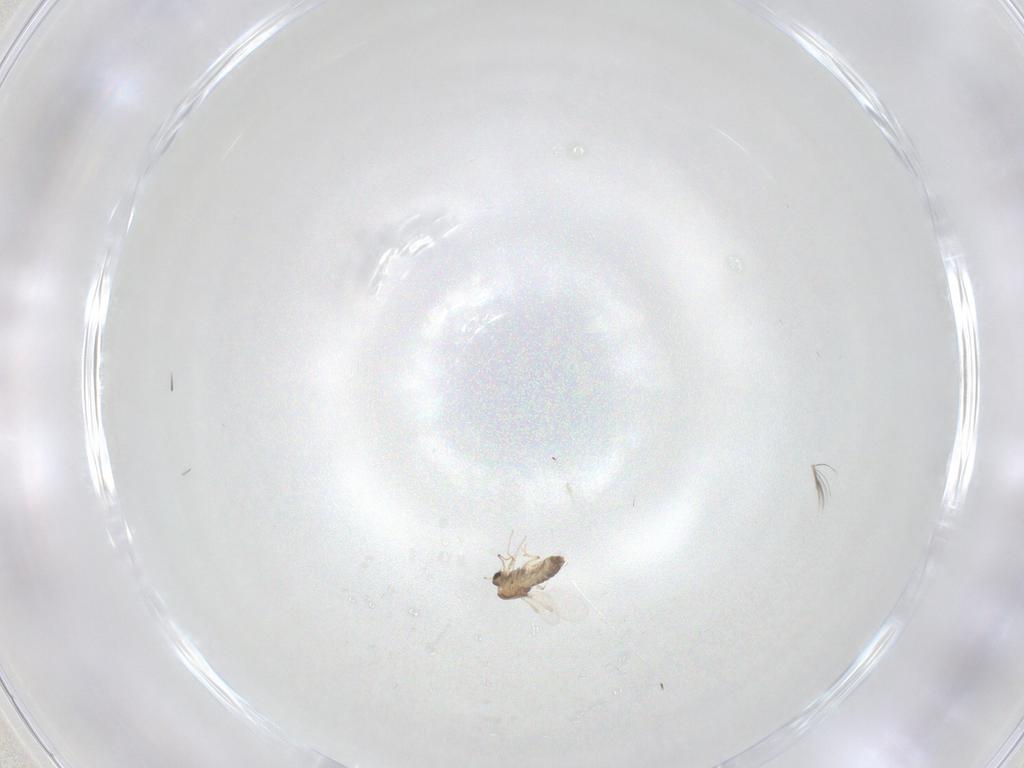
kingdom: Animalia
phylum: Arthropoda
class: Insecta
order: Diptera
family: Chironomidae
